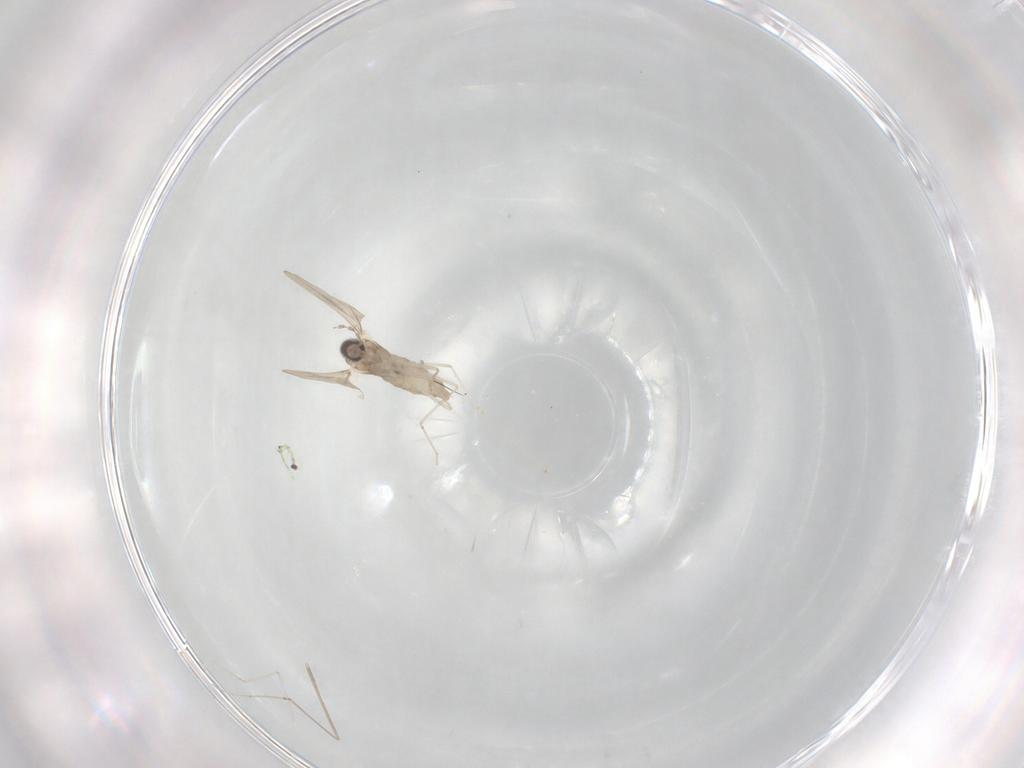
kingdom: Animalia
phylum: Arthropoda
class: Insecta
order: Diptera
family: Cecidomyiidae
